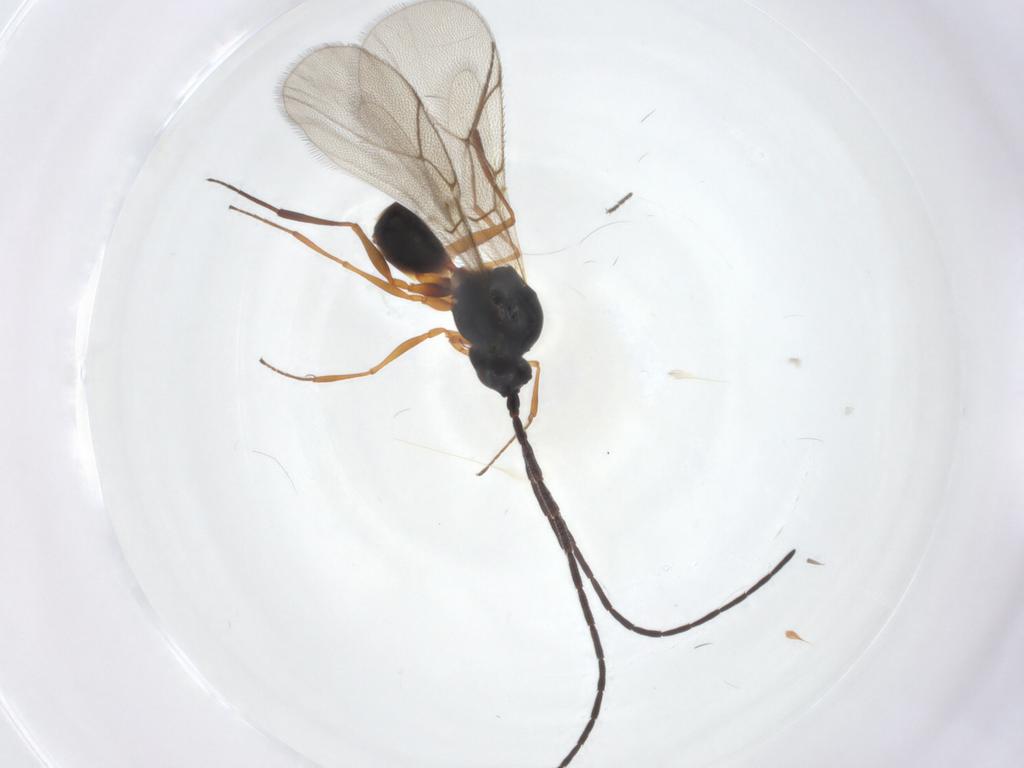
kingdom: Animalia
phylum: Arthropoda
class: Insecta
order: Hymenoptera
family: Figitidae
